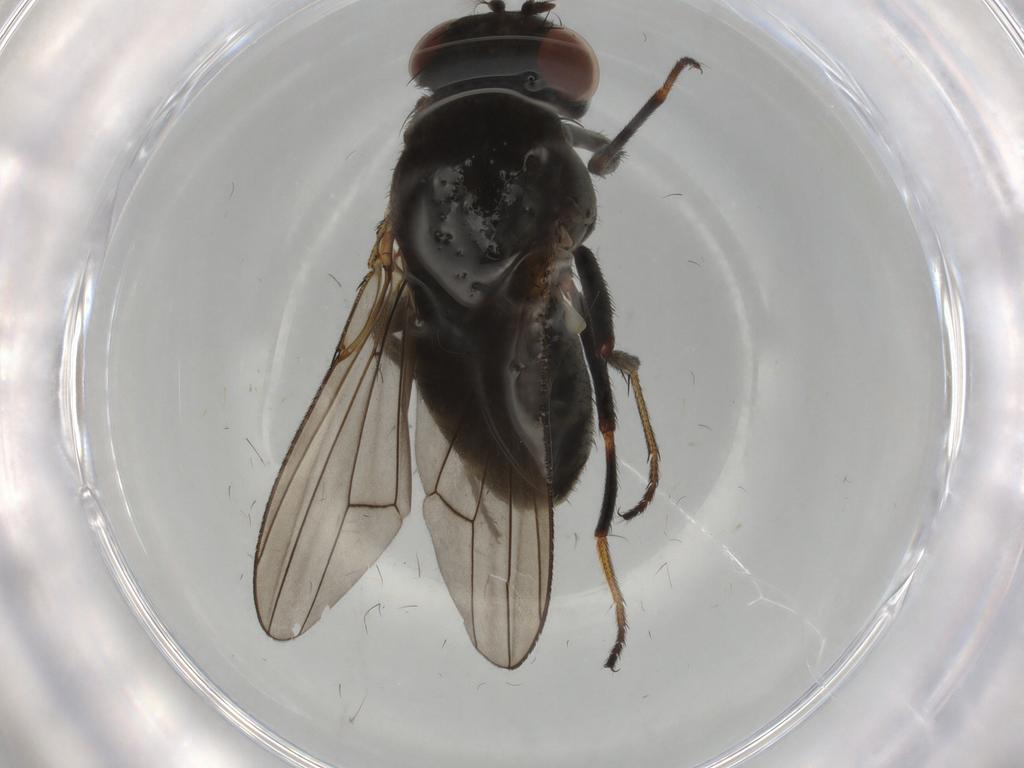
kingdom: Animalia
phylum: Arthropoda
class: Insecta
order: Diptera
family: Ephydridae
